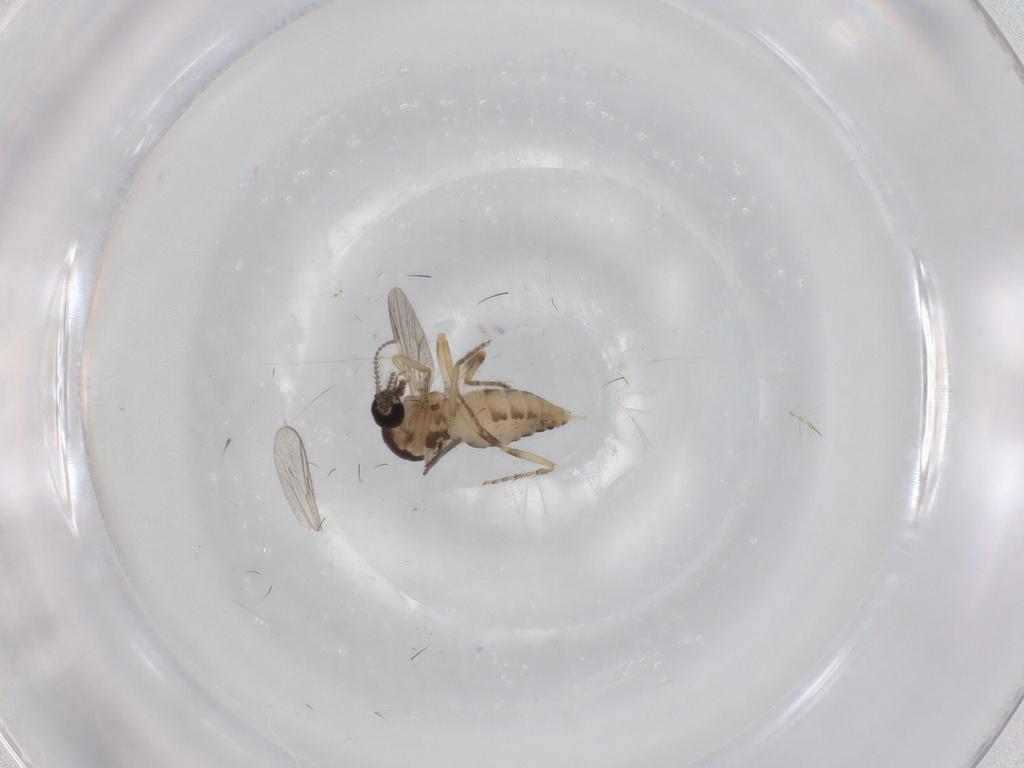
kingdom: Animalia
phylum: Arthropoda
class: Insecta
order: Diptera
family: Ceratopogonidae
